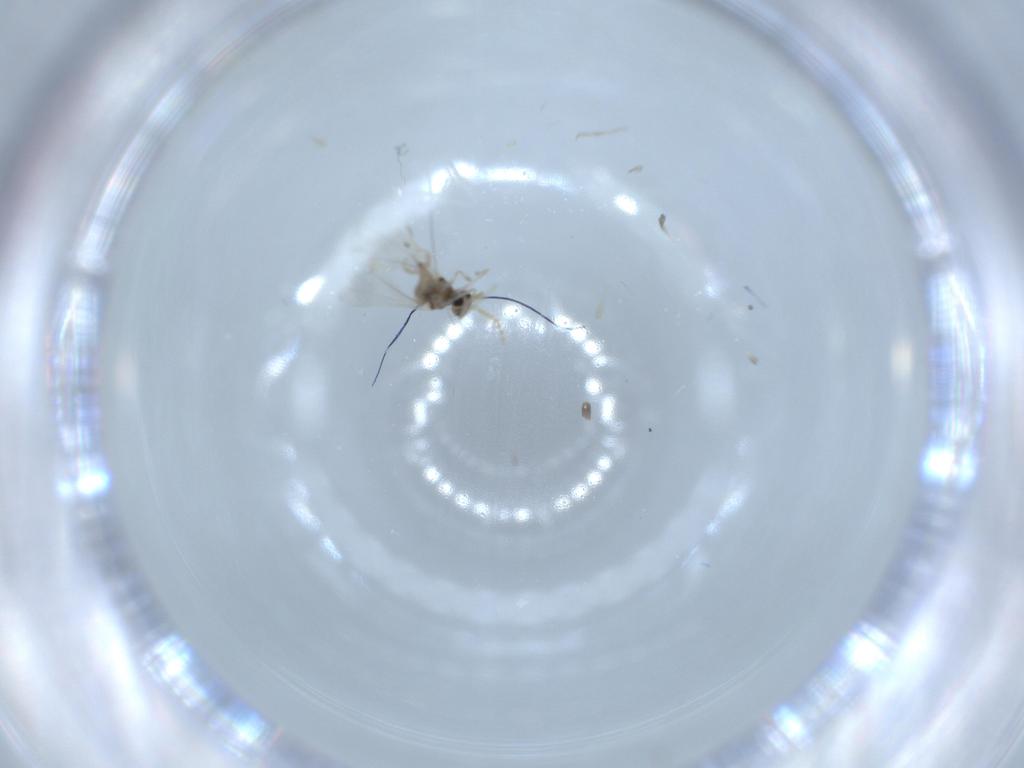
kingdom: Animalia
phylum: Arthropoda
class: Insecta
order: Diptera
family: Cecidomyiidae
